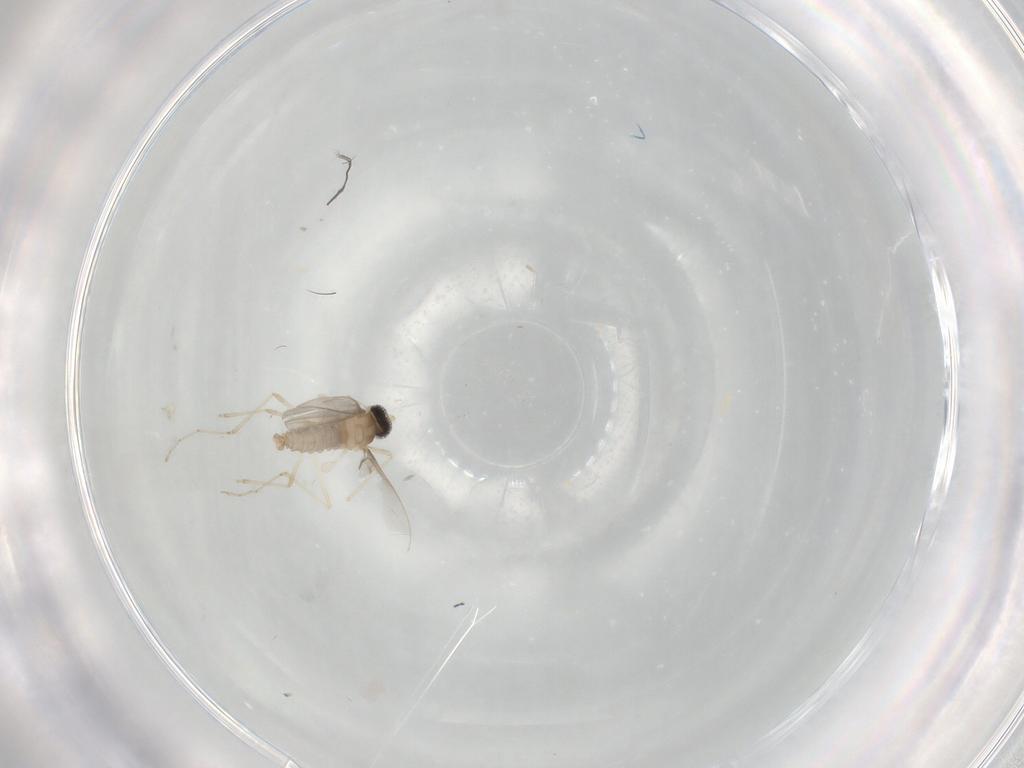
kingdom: Animalia
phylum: Arthropoda
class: Insecta
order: Diptera
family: Cecidomyiidae
